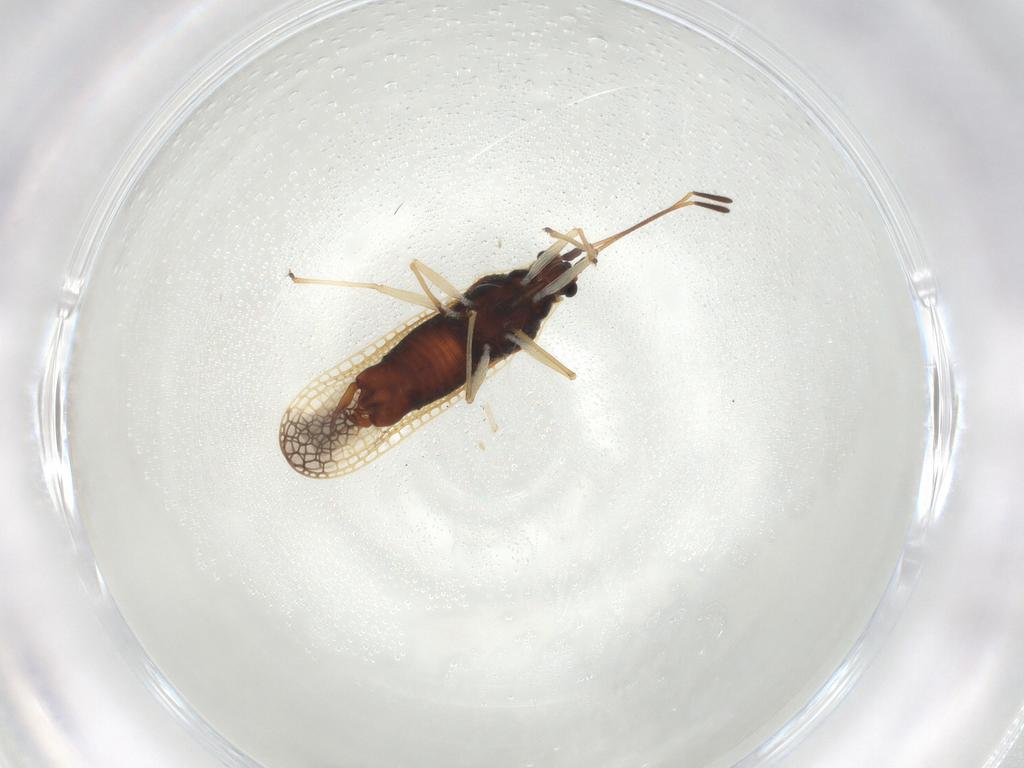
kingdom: Animalia
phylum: Arthropoda
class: Insecta
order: Hemiptera
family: Tingidae
